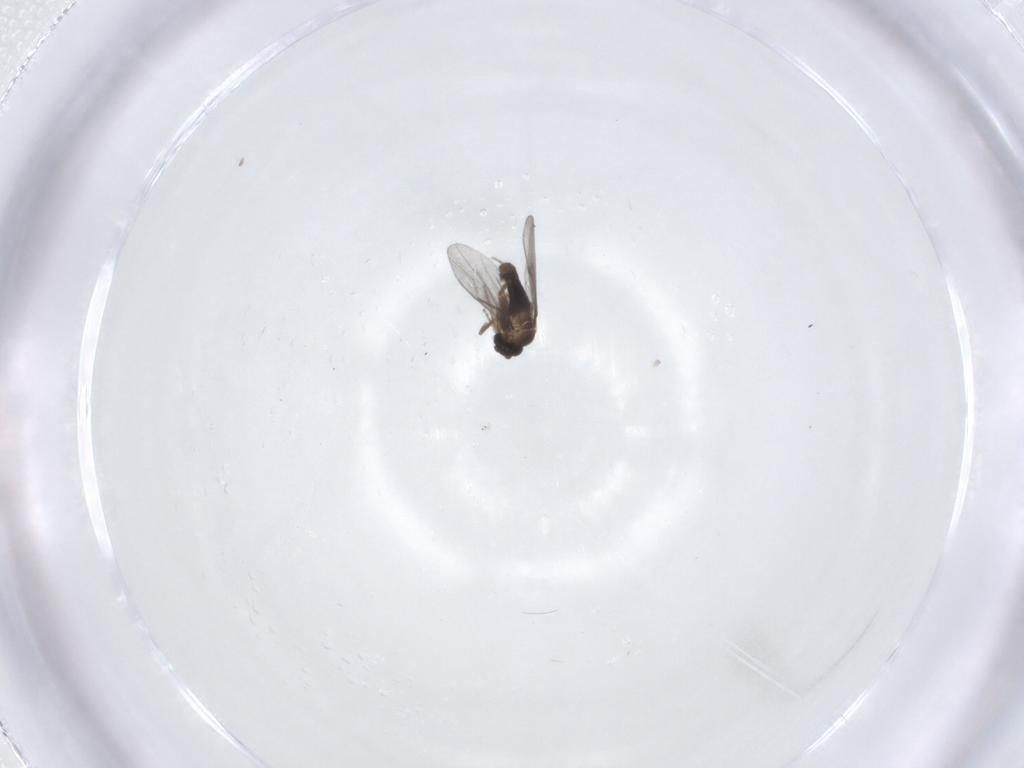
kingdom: Animalia
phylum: Arthropoda
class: Insecta
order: Diptera
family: Phoridae
